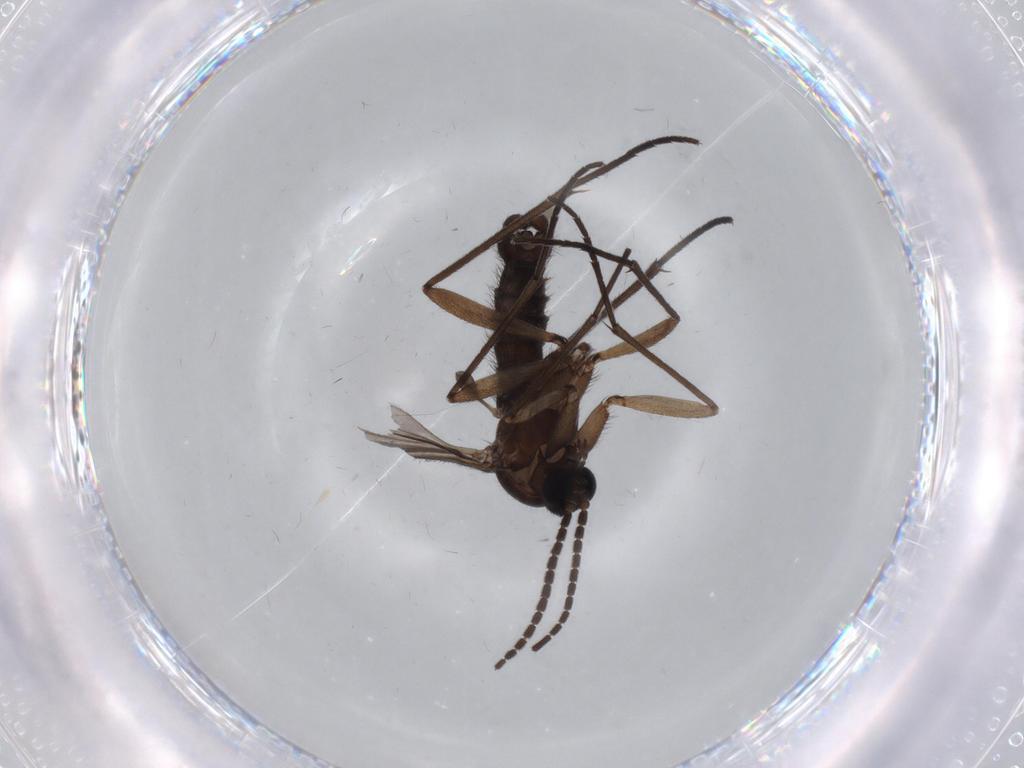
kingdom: Animalia
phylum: Arthropoda
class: Insecta
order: Diptera
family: Sciaridae
